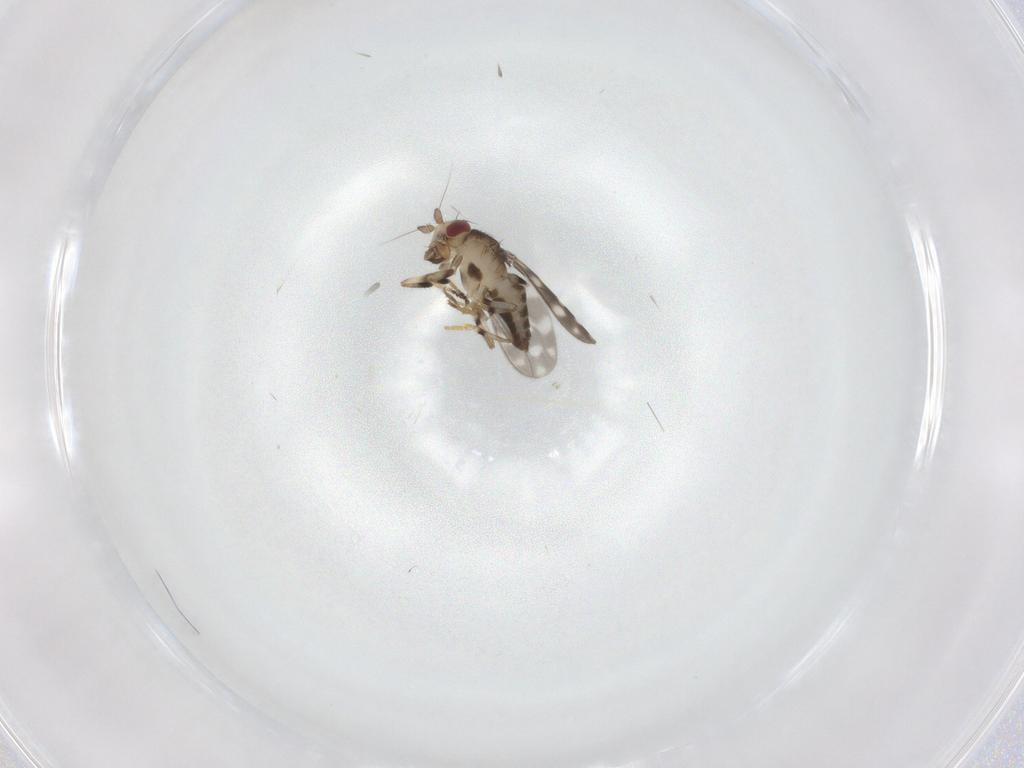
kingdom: Animalia
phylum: Arthropoda
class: Insecta
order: Diptera
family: Sphaeroceridae
